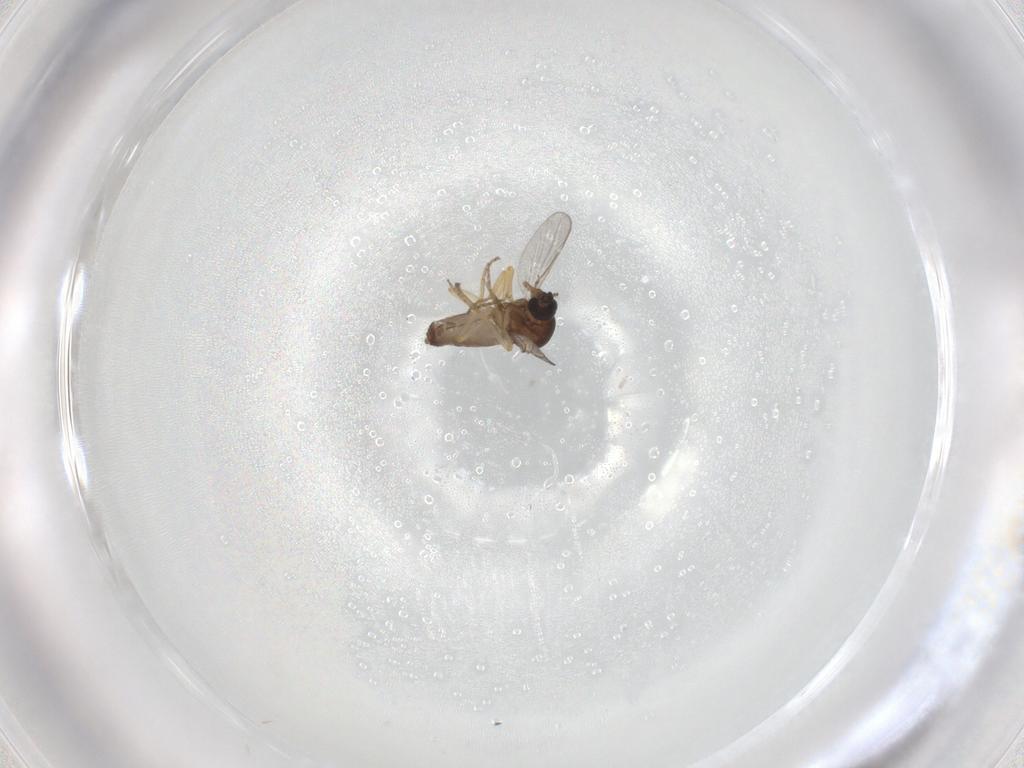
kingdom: Animalia
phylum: Arthropoda
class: Insecta
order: Diptera
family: Ceratopogonidae
